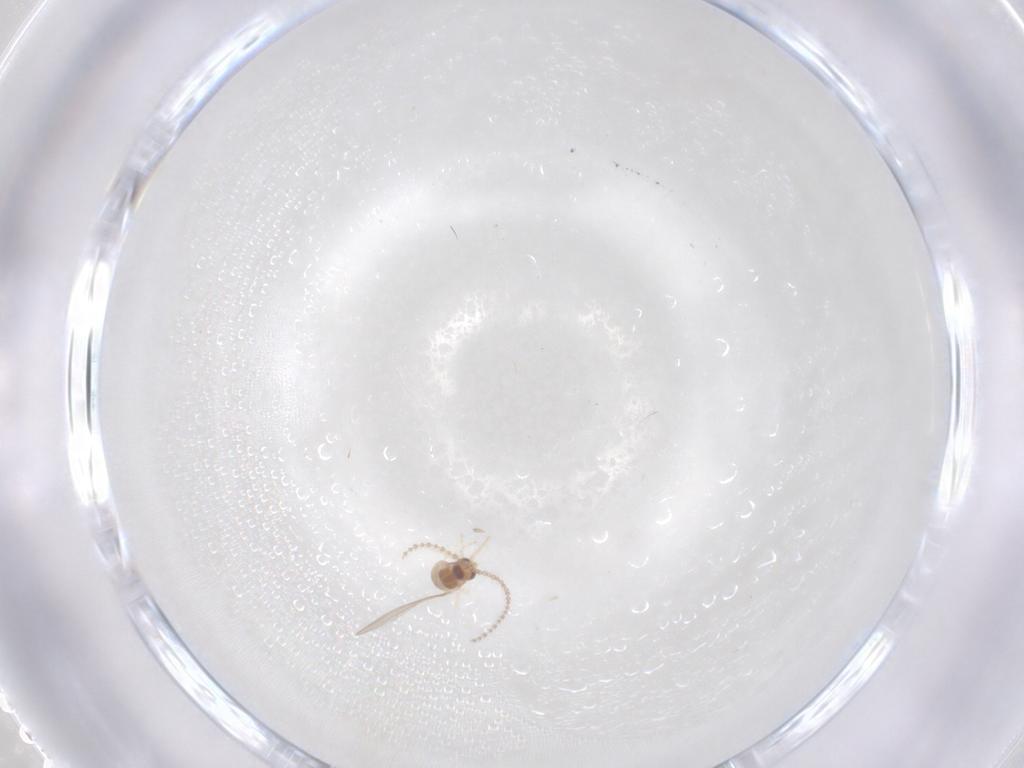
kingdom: Animalia
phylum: Arthropoda
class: Insecta
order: Diptera
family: Cecidomyiidae
